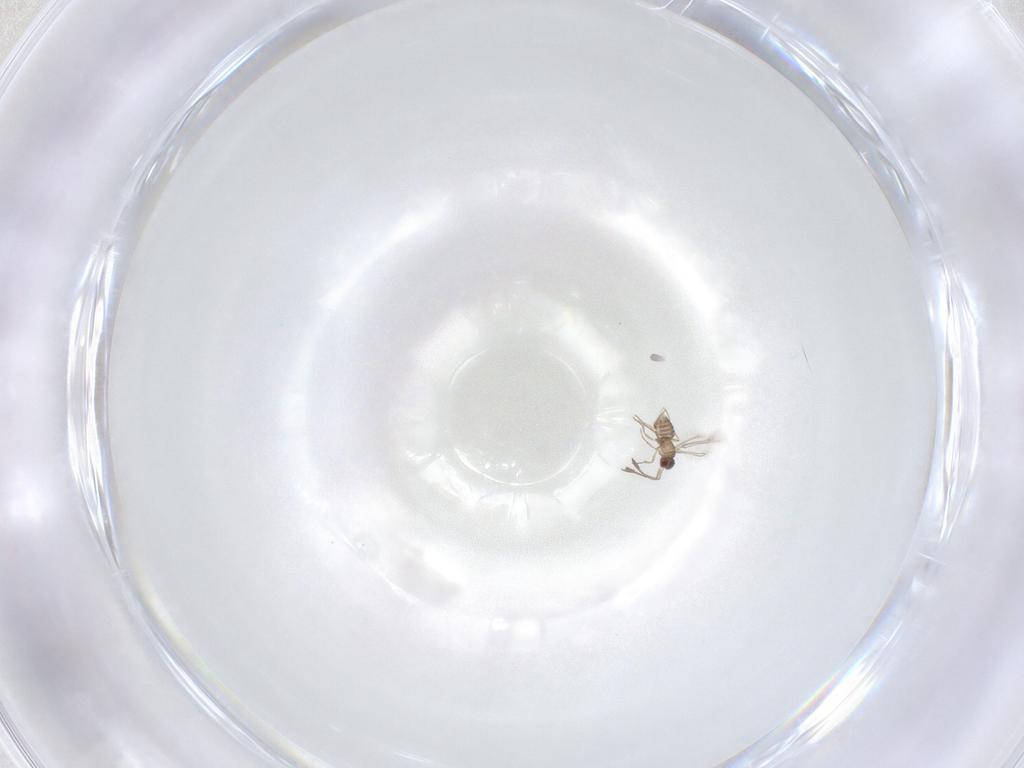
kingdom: Animalia
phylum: Arthropoda
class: Insecta
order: Hymenoptera
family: Mymaridae
